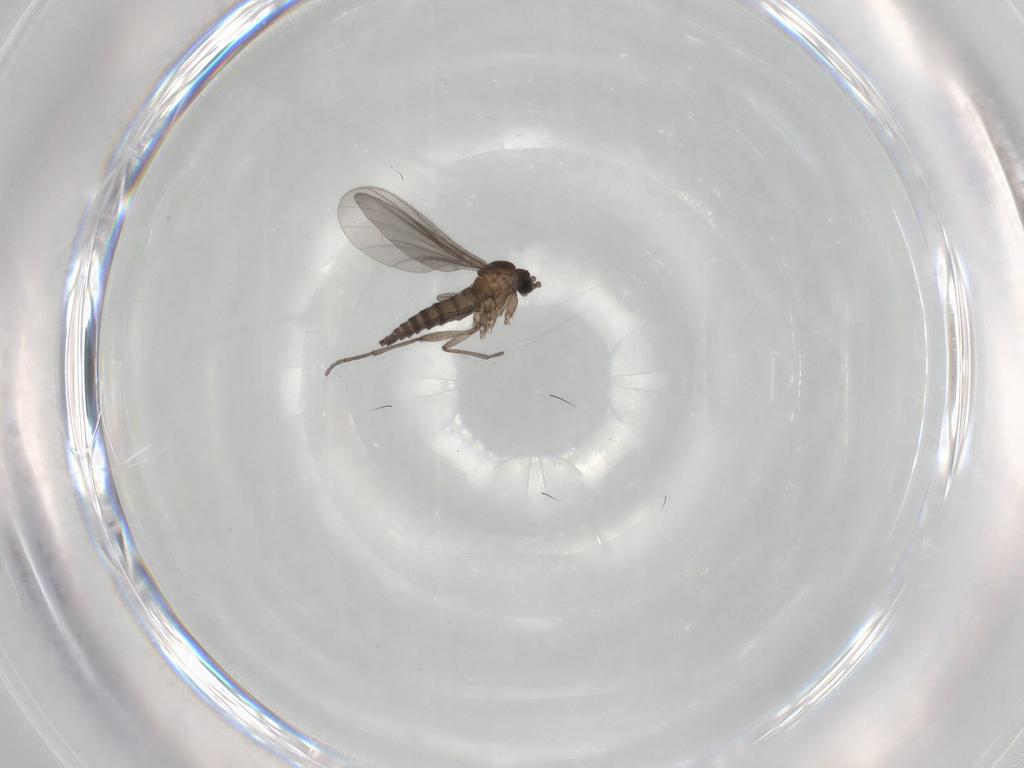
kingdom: Animalia
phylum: Arthropoda
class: Insecta
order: Diptera
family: Sciaridae
